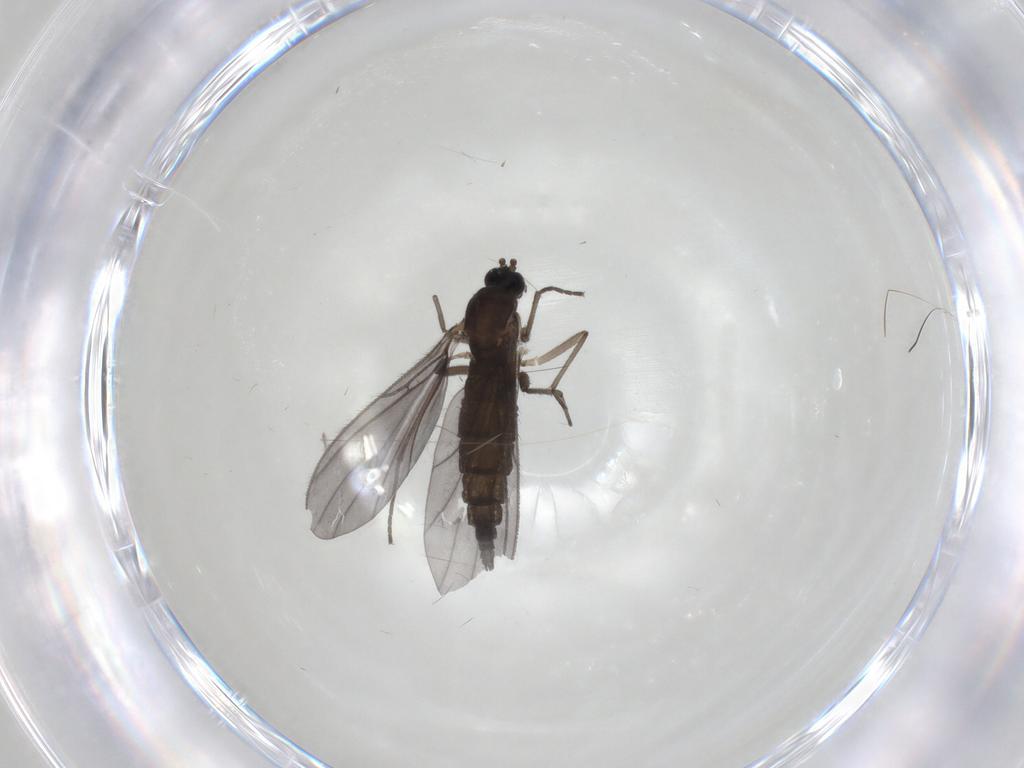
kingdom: Animalia
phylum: Arthropoda
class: Insecta
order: Diptera
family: Sciaridae
